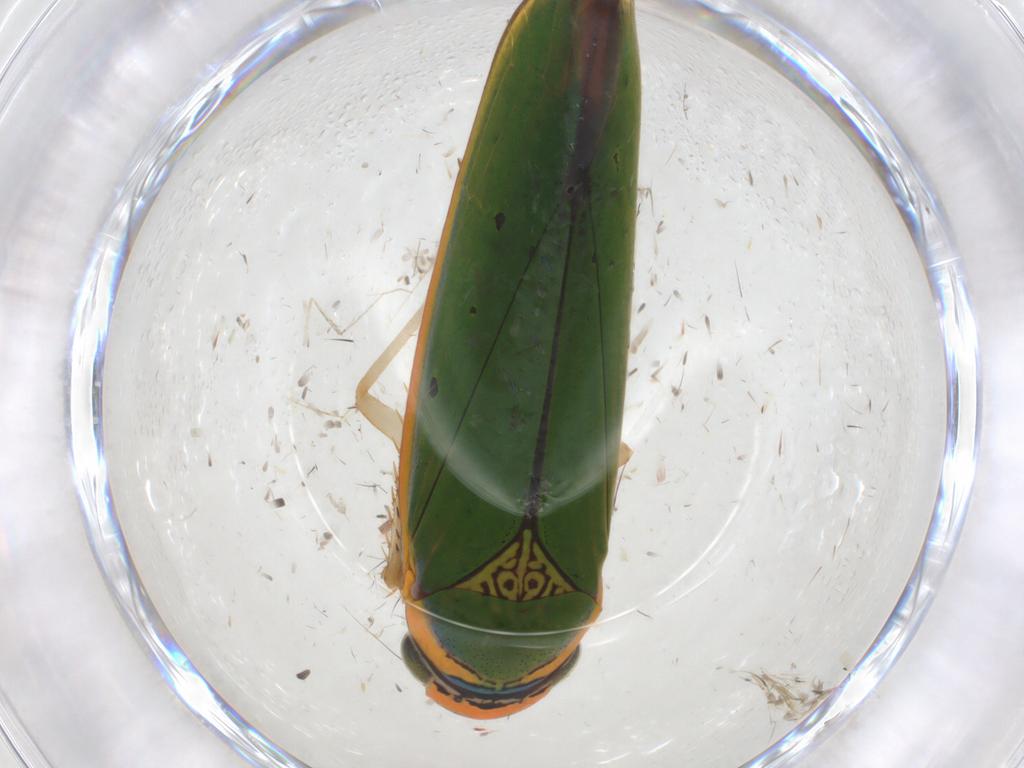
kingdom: Animalia
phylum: Arthropoda
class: Insecta
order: Hemiptera
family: Cicadellidae
